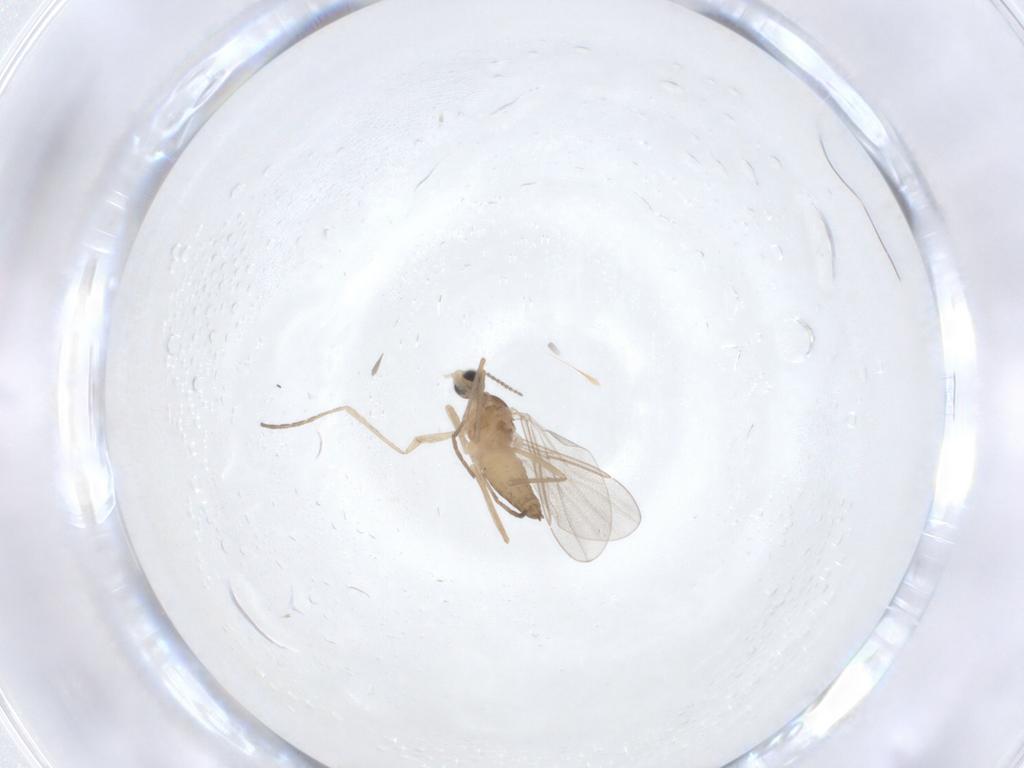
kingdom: Animalia
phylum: Arthropoda
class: Insecta
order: Diptera
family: Cecidomyiidae
